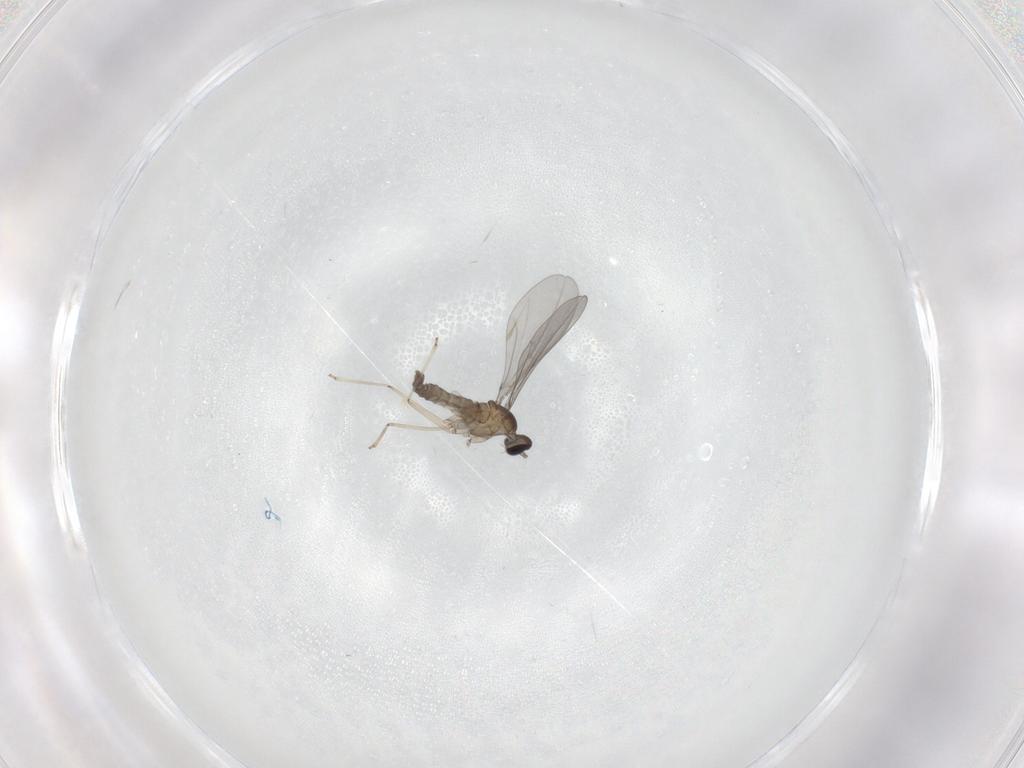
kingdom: Animalia
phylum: Arthropoda
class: Insecta
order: Diptera
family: Cecidomyiidae
